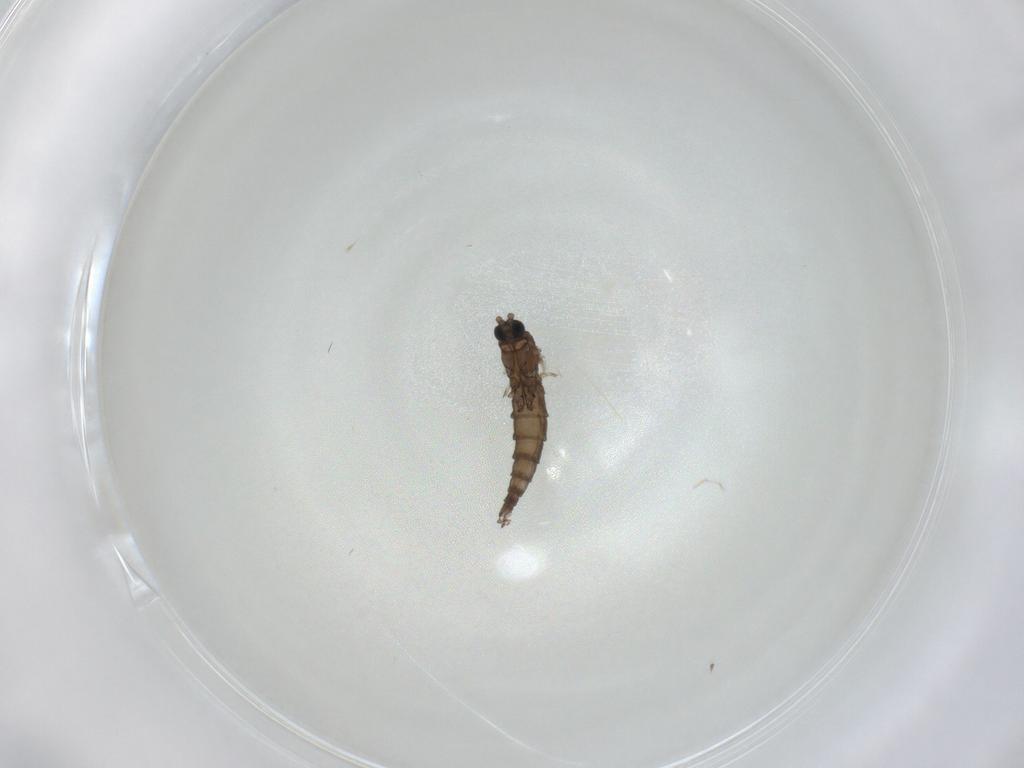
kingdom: Animalia
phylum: Arthropoda
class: Insecta
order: Diptera
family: Sciaridae
